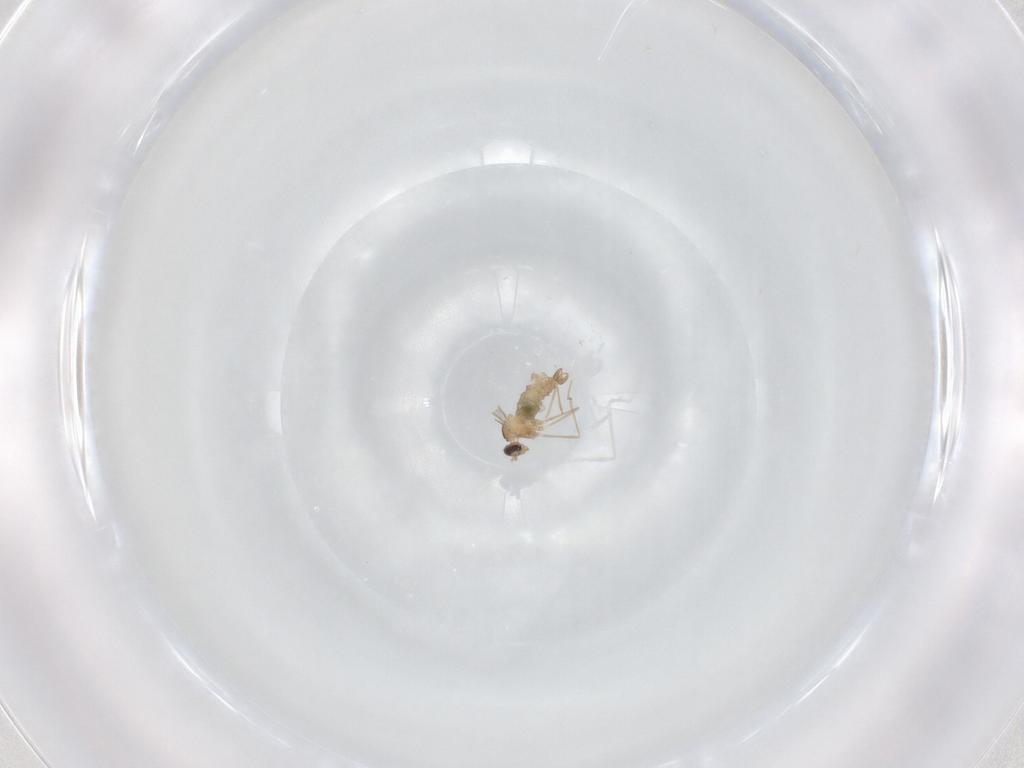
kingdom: Animalia
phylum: Arthropoda
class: Insecta
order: Diptera
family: Cecidomyiidae
